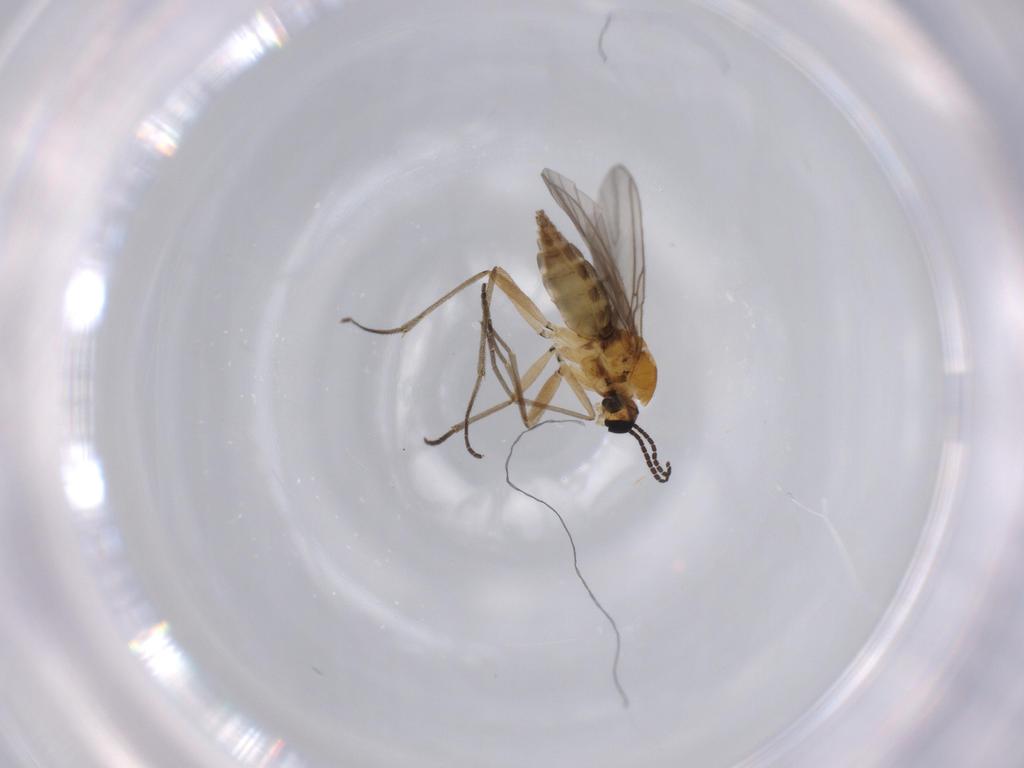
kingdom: Animalia
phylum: Arthropoda
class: Insecta
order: Diptera
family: Sciaridae
